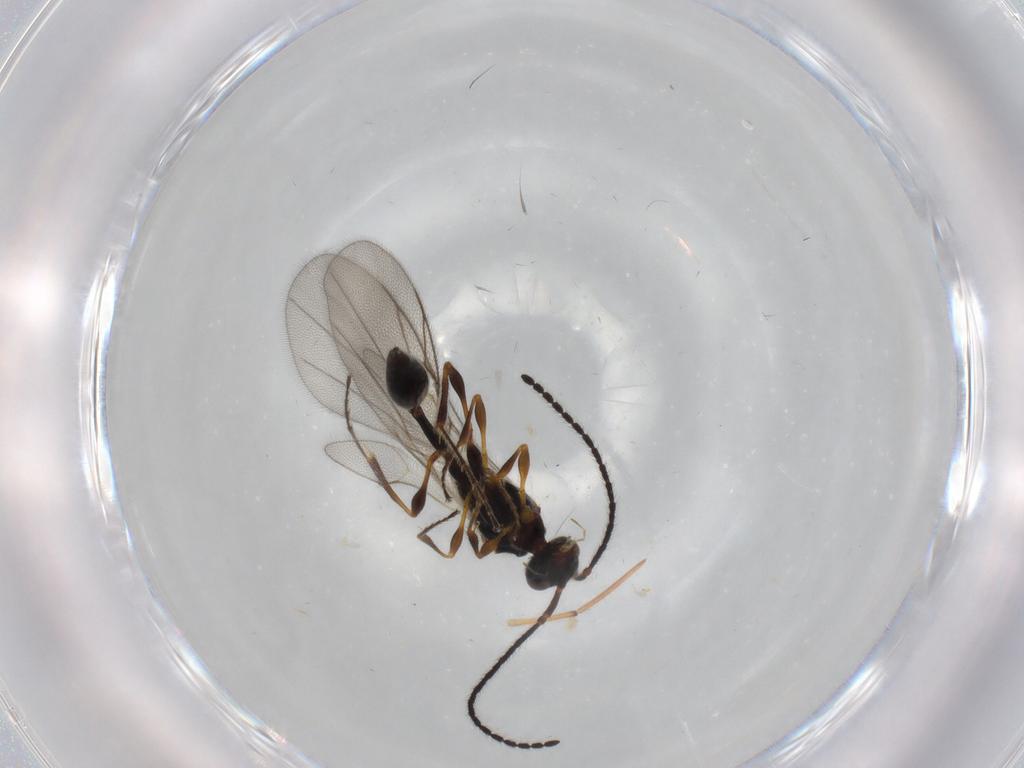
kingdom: Animalia
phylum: Arthropoda
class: Insecta
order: Hymenoptera
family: Diapriidae
